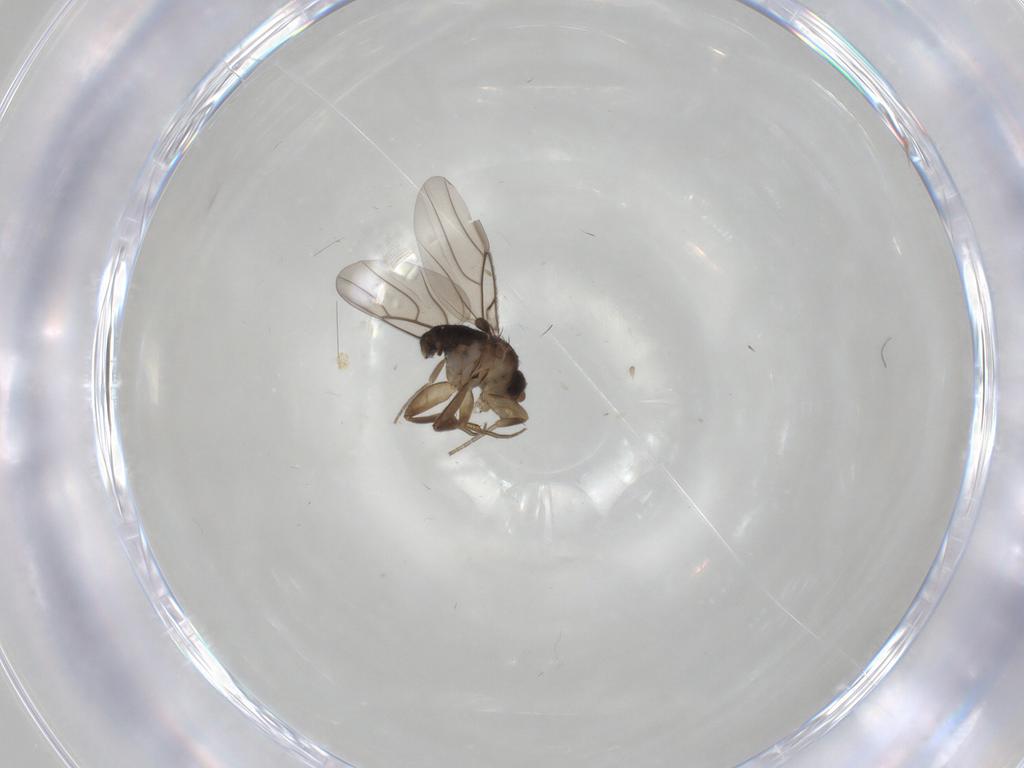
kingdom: Animalia
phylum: Arthropoda
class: Insecta
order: Diptera
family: Phoridae
